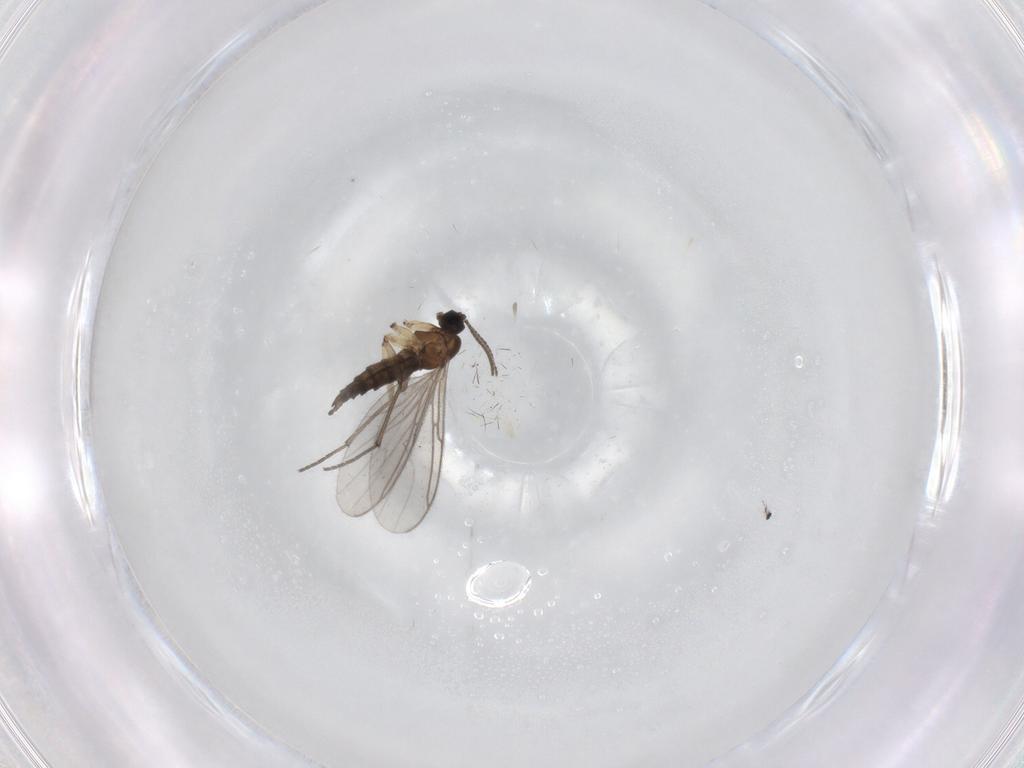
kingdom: Animalia
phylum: Arthropoda
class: Insecta
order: Diptera
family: Sciaridae
